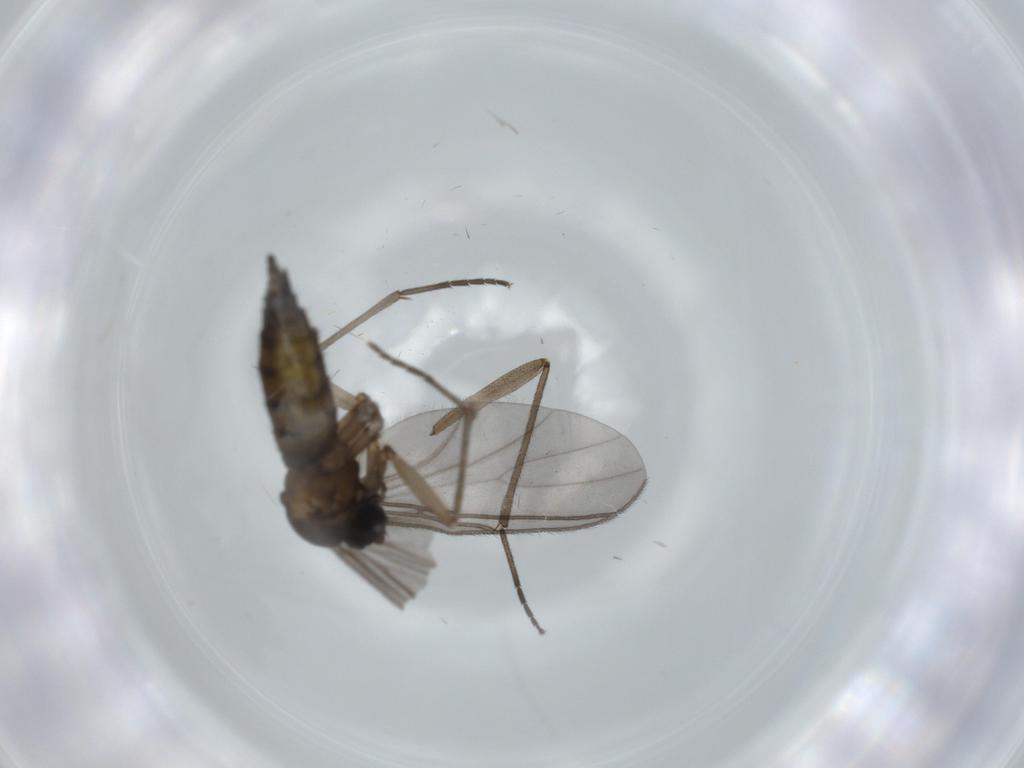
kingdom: Animalia
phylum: Arthropoda
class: Insecta
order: Diptera
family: Sciaridae
